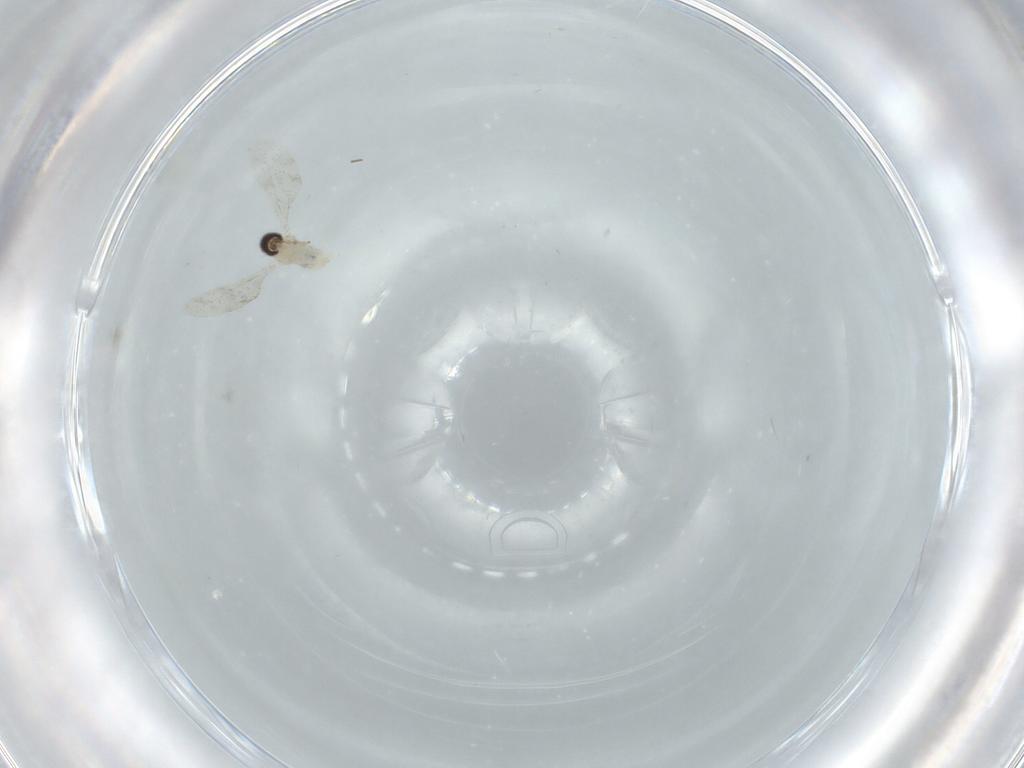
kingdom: Animalia
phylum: Arthropoda
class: Insecta
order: Diptera
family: Cecidomyiidae
